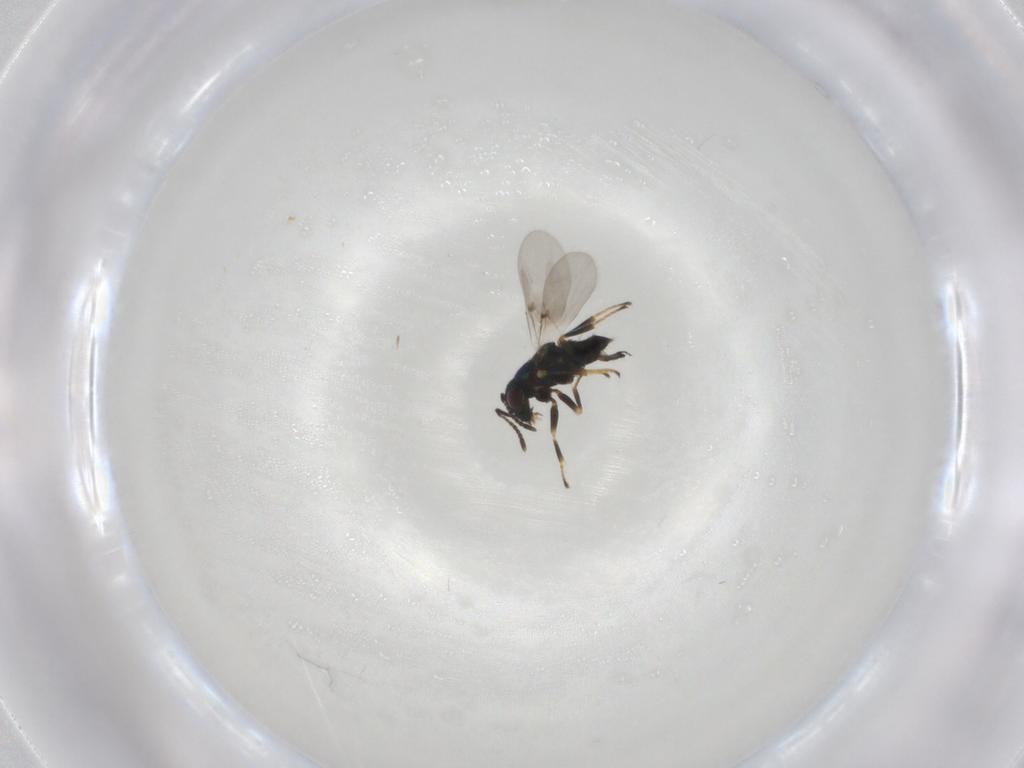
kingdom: Animalia
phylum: Arthropoda
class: Insecta
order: Hymenoptera
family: Encyrtidae
